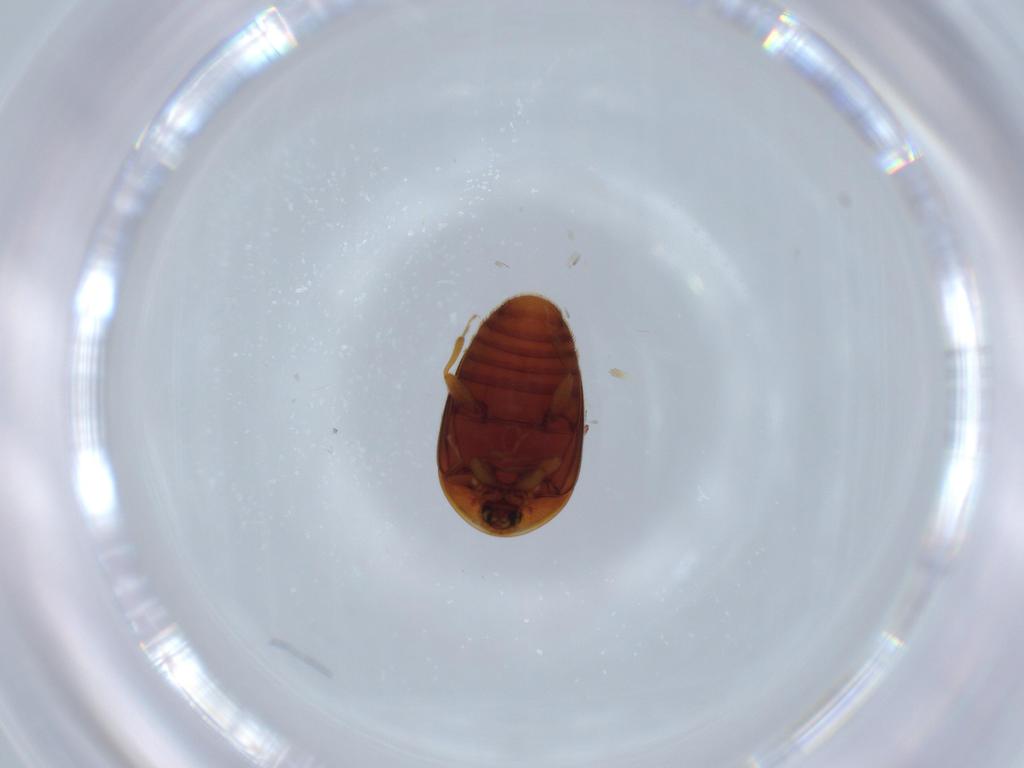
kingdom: Animalia
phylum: Arthropoda
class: Insecta
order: Coleoptera
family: Corylophidae
